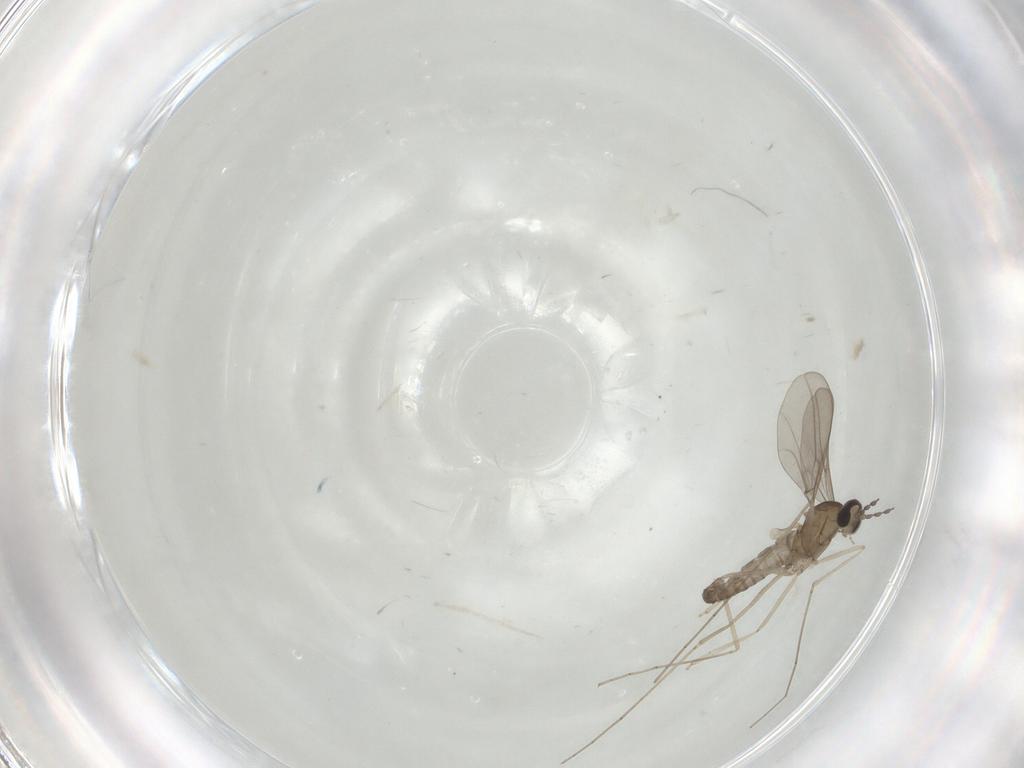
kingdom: Animalia
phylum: Arthropoda
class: Insecta
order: Diptera
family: Cecidomyiidae
